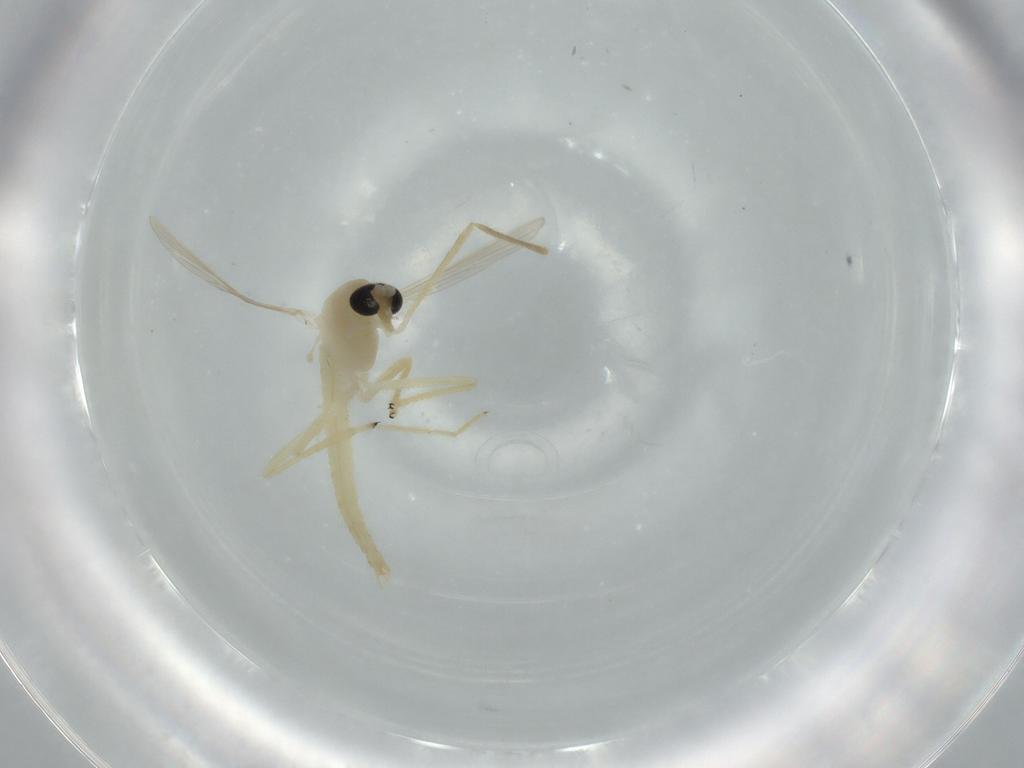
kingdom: Animalia
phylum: Arthropoda
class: Insecta
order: Diptera
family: Chironomidae
